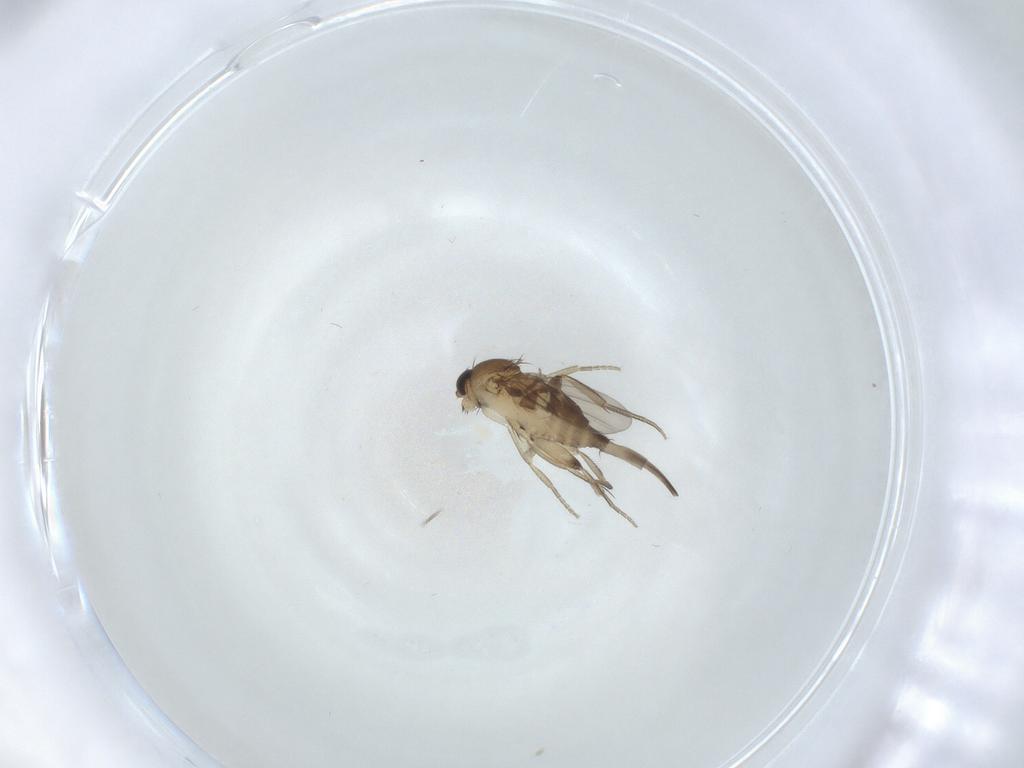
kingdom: Animalia
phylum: Arthropoda
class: Insecta
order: Diptera
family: Phoridae
